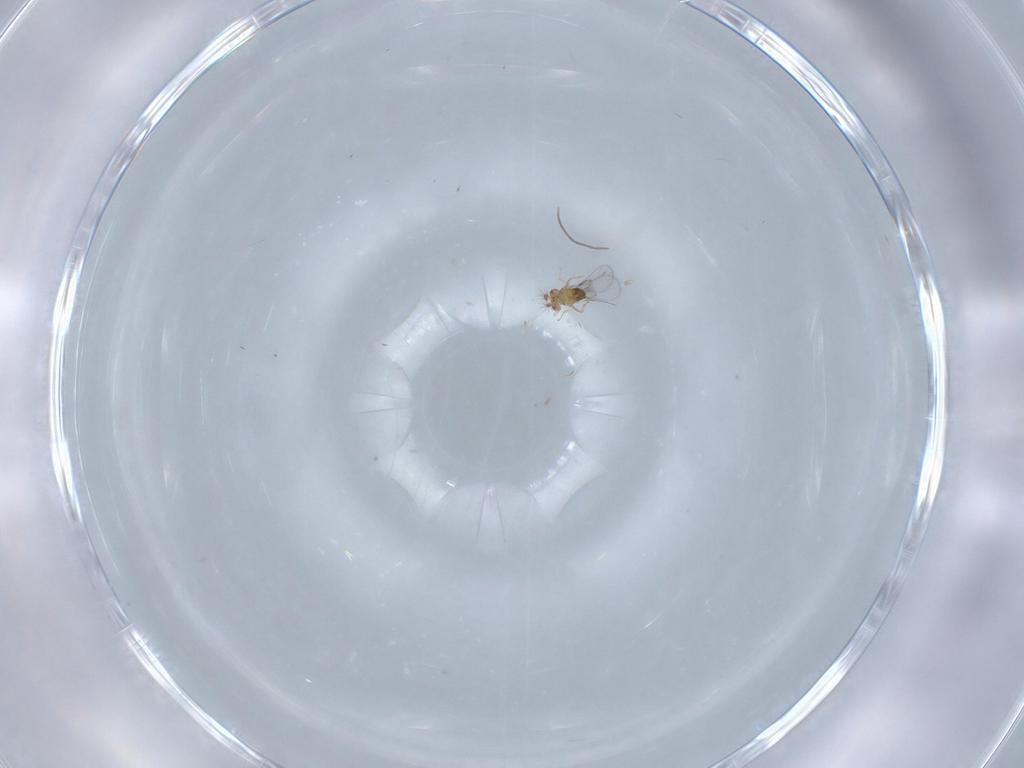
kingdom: Animalia
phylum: Arthropoda
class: Insecta
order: Hymenoptera
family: Trichogrammatidae
